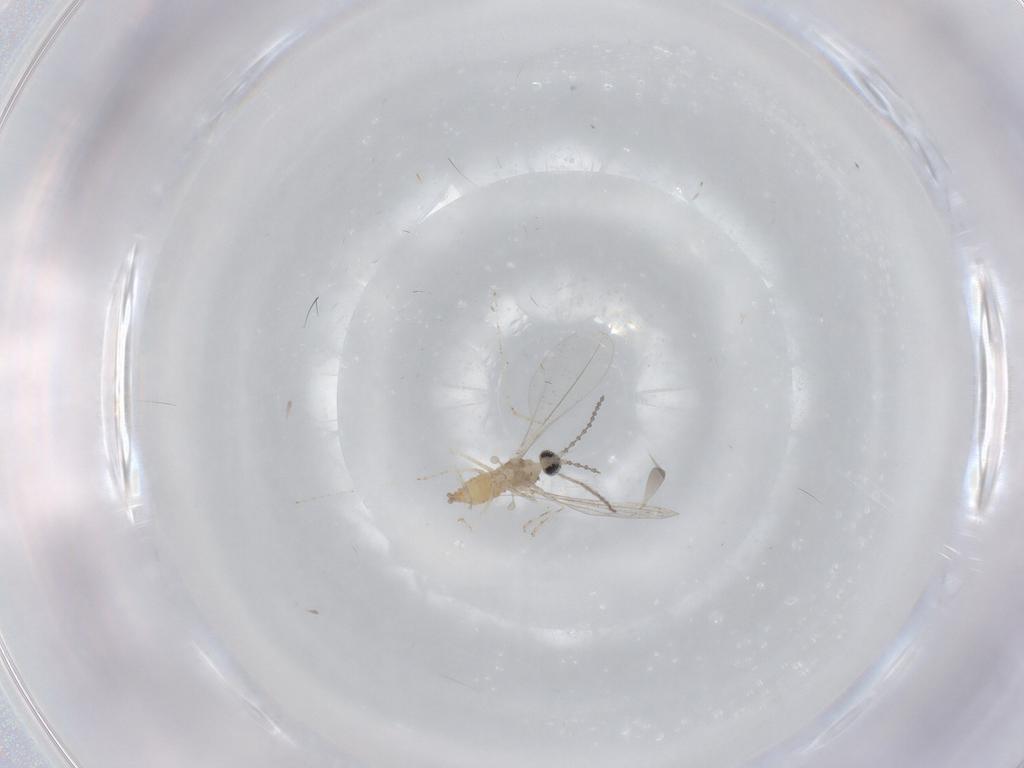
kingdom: Animalia
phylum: Arthropoda
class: Insecta
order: Diptera
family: Cecidomyiidae
